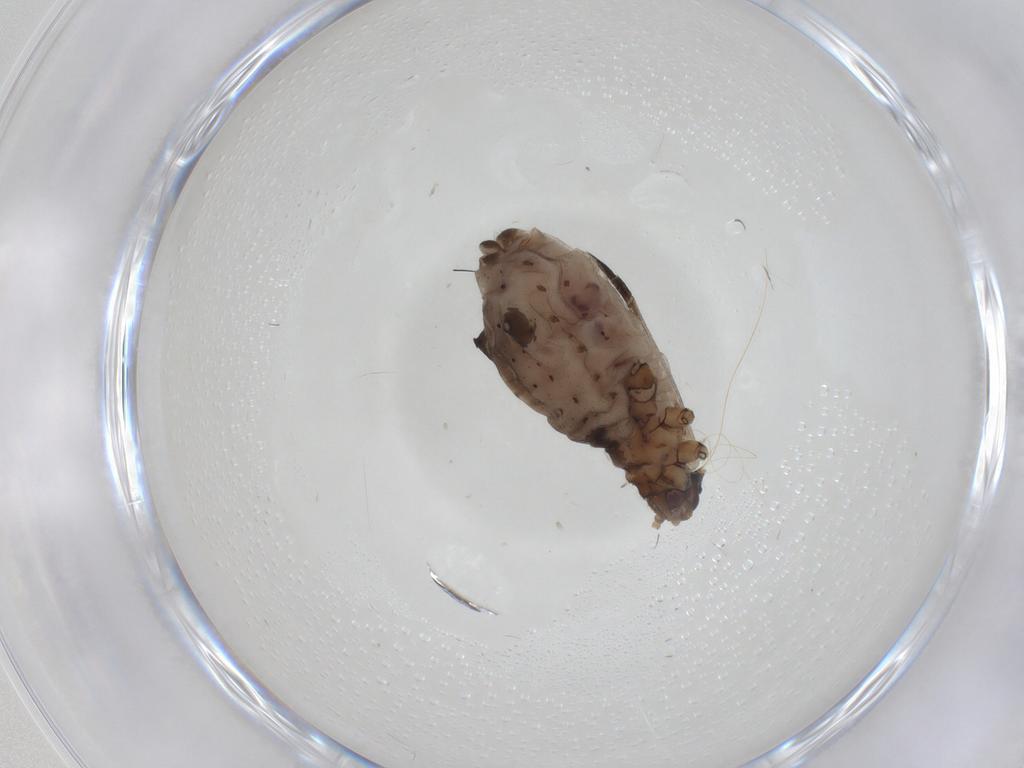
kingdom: Animalia
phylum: Arthropoda
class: Insecta
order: Hemiptera
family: Aphididae
